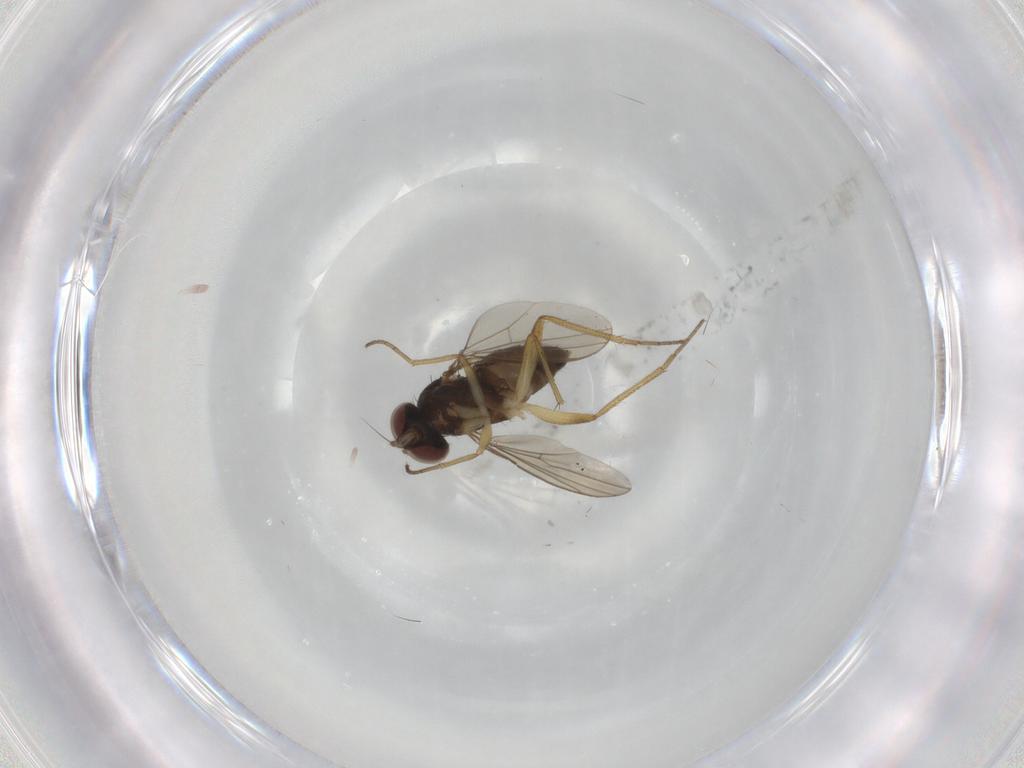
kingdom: Animalia
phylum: Arthropoda
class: Insecta
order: Diptera
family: Dolichopodidae
